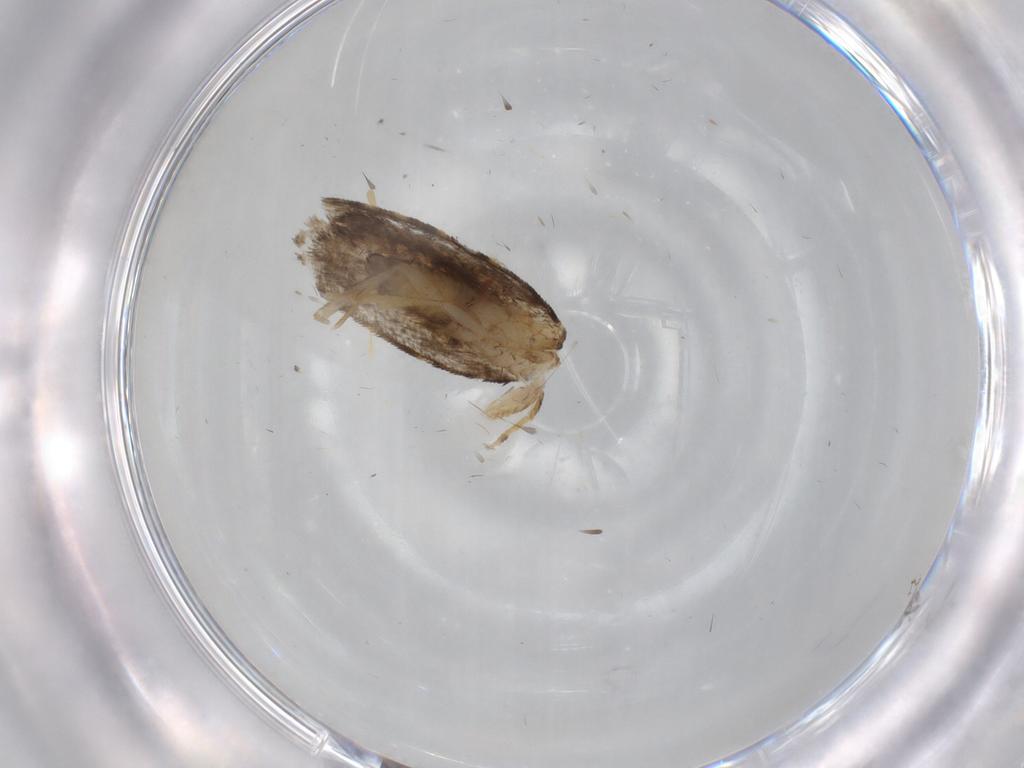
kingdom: Animalia
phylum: Arthropoda
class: Insecta
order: Lepidoptera
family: Psychidae
